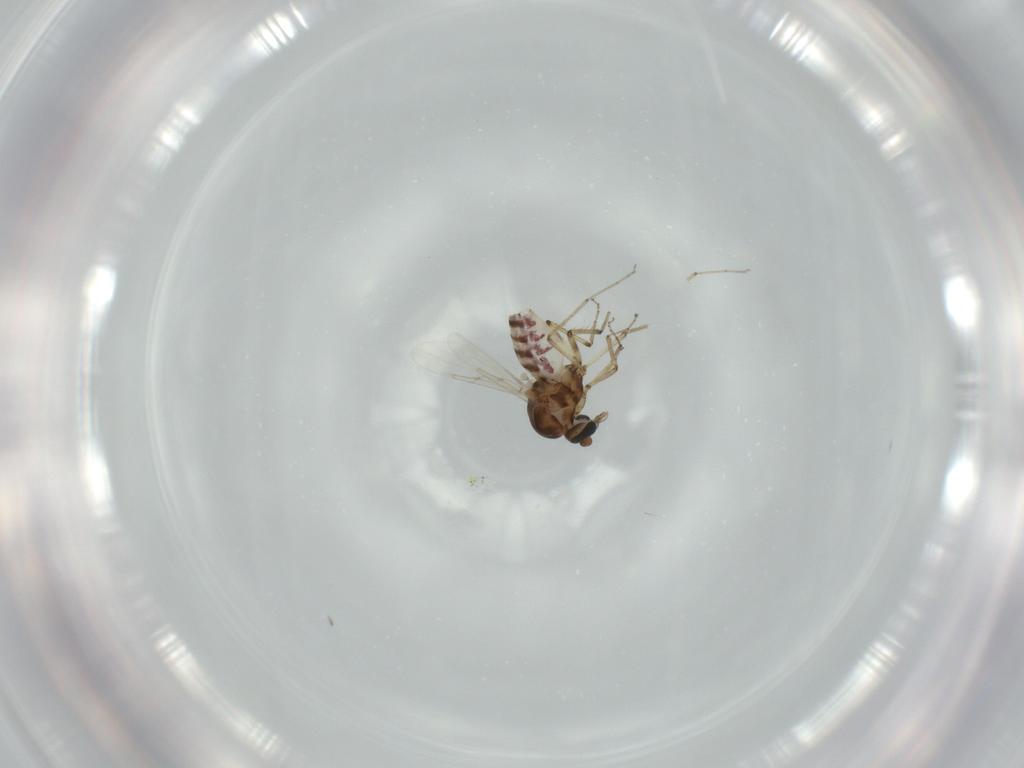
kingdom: Animalia
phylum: Arthropoda
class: Insecta
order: Diptera
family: Ceratopogonidae
